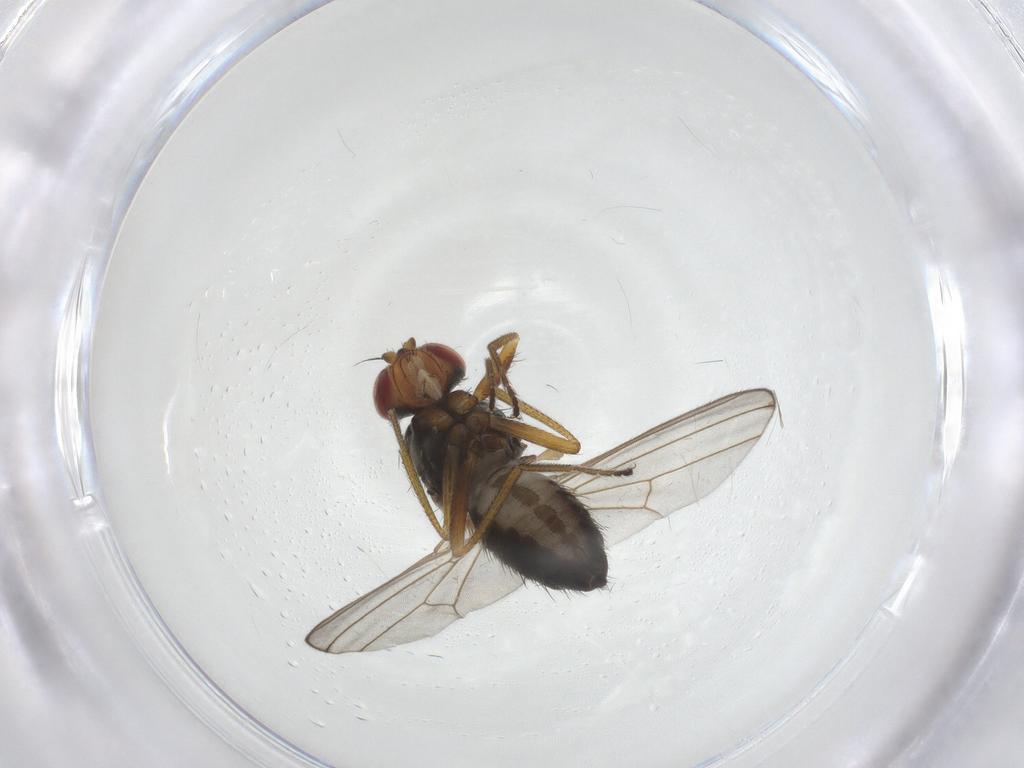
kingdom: Animalia
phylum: Arthropoda
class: Insecta
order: Diptera
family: Drosophilidae
